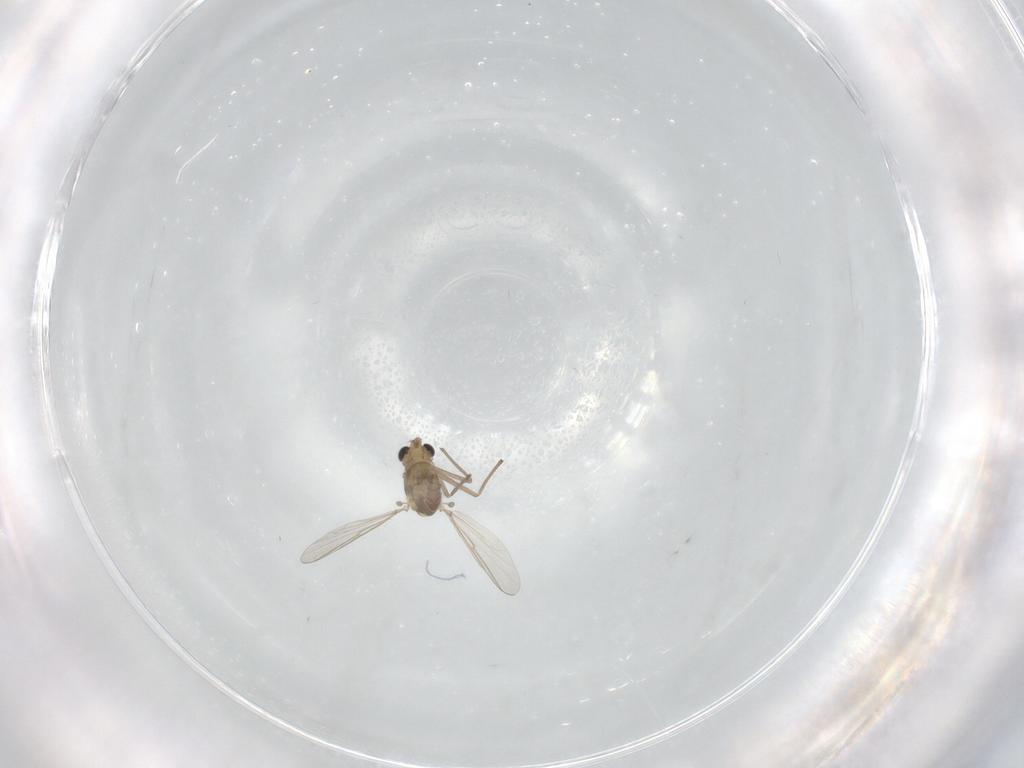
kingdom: Animalia
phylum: Arthropoda
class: Insecta
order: Diptera
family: Chironomidae
